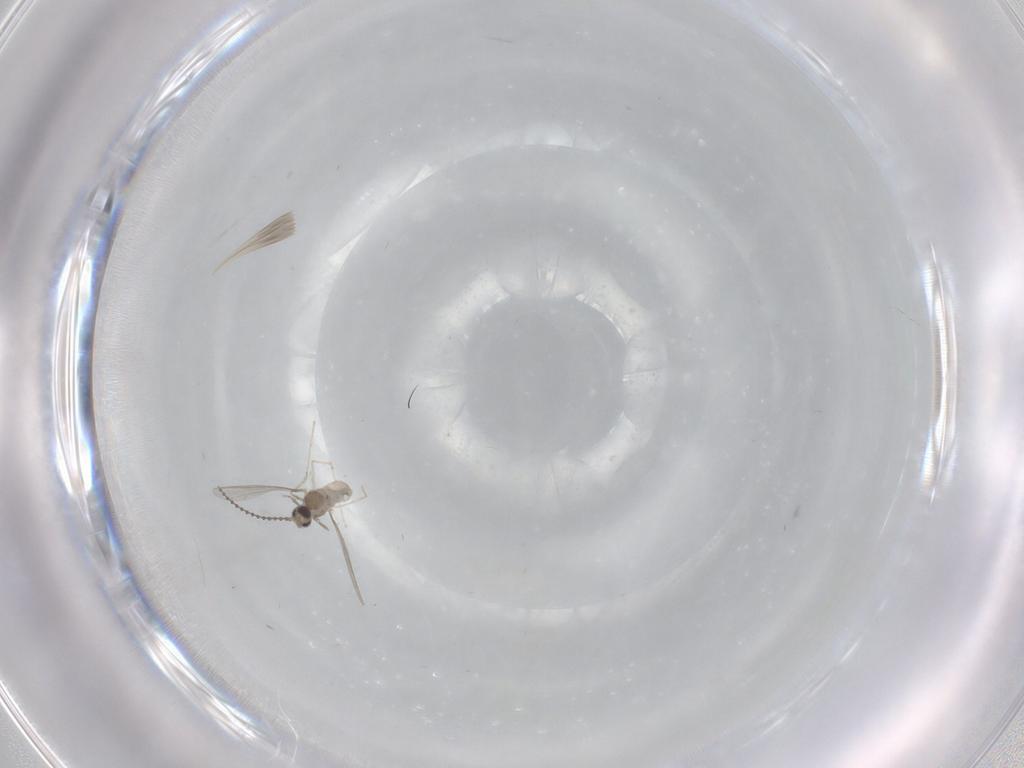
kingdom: Animalia
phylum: Arthropoda
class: Insecta
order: Diptera
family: Cecidomyiidae
